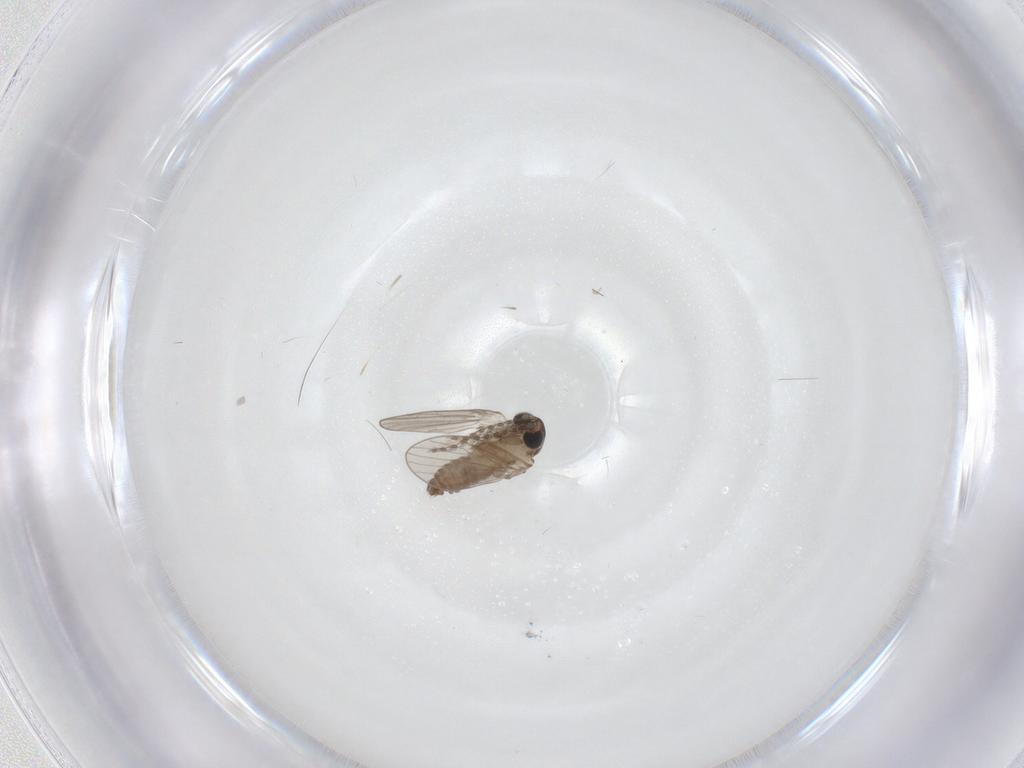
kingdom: Animalia
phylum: Arthropoda
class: Insecta
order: Diptera
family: Psychodidae
